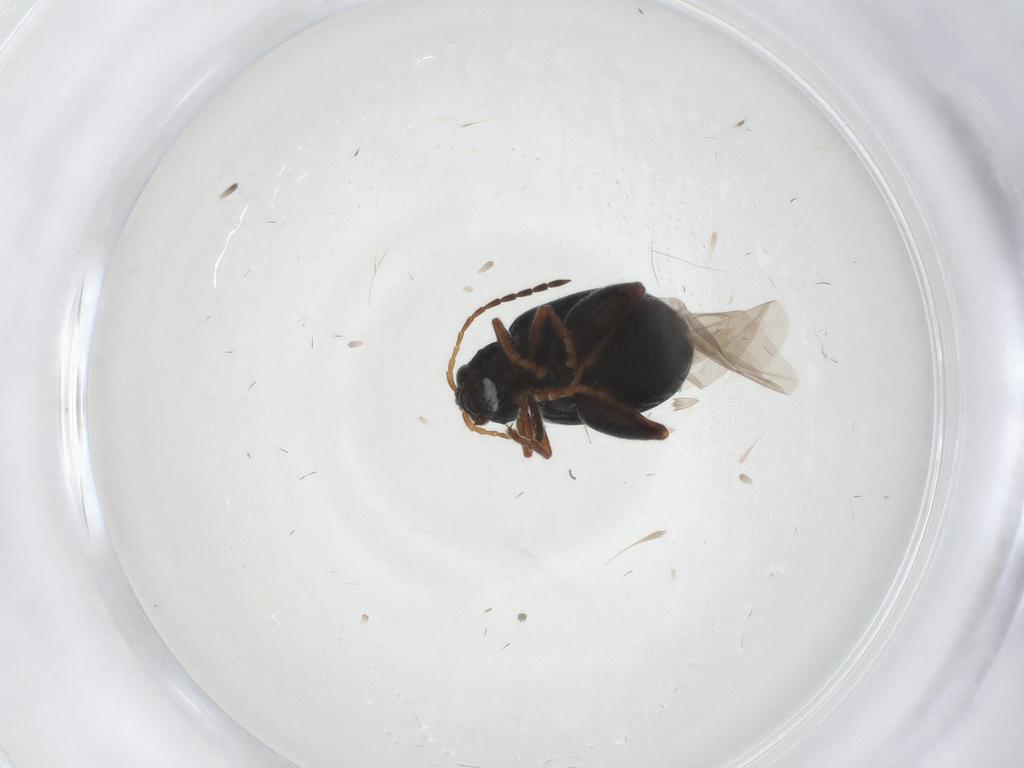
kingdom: Animalia
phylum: Arthropoda
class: Insecta
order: Coleoptera
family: Chrysomelidae
